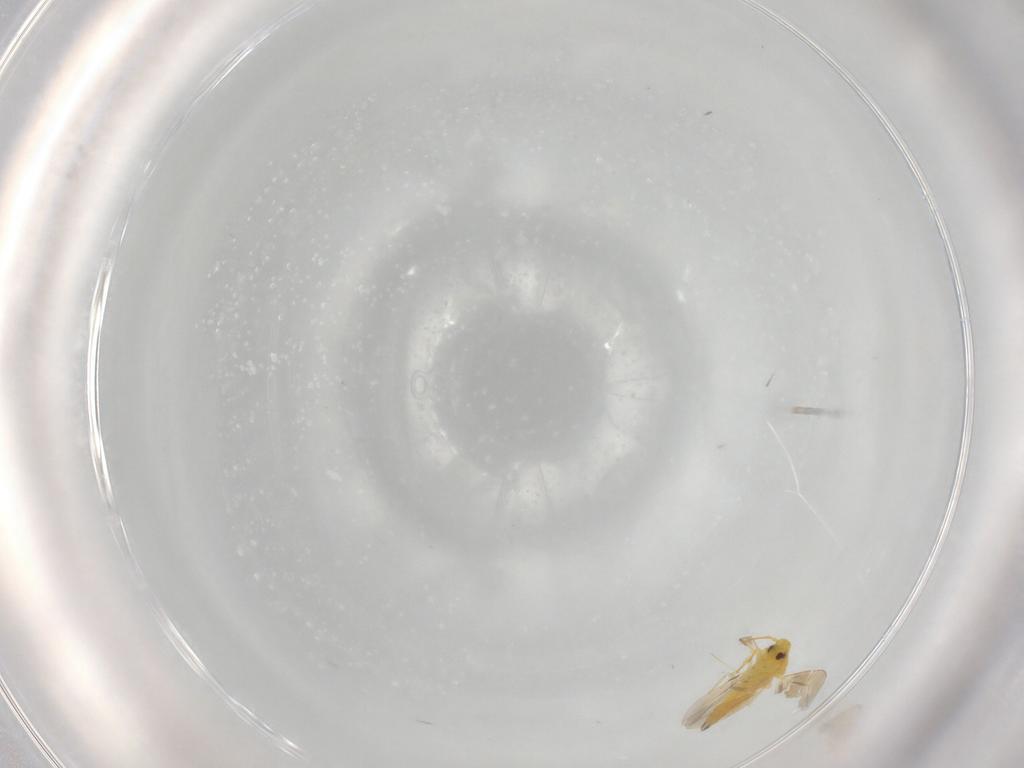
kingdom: Animalia
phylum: Arthropoda
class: Insecta
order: Hemiptera
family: Aleyrodidae
